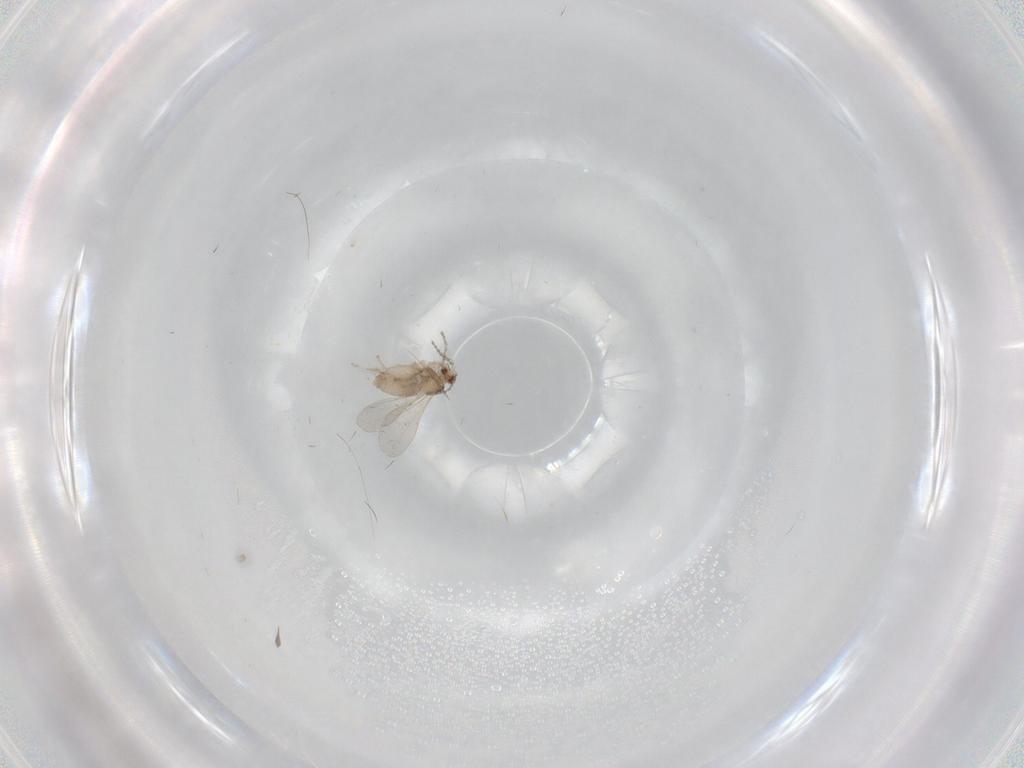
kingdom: Animalia
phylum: Arthropoda
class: Insecta
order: Diptera
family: Cecidomyiidae
